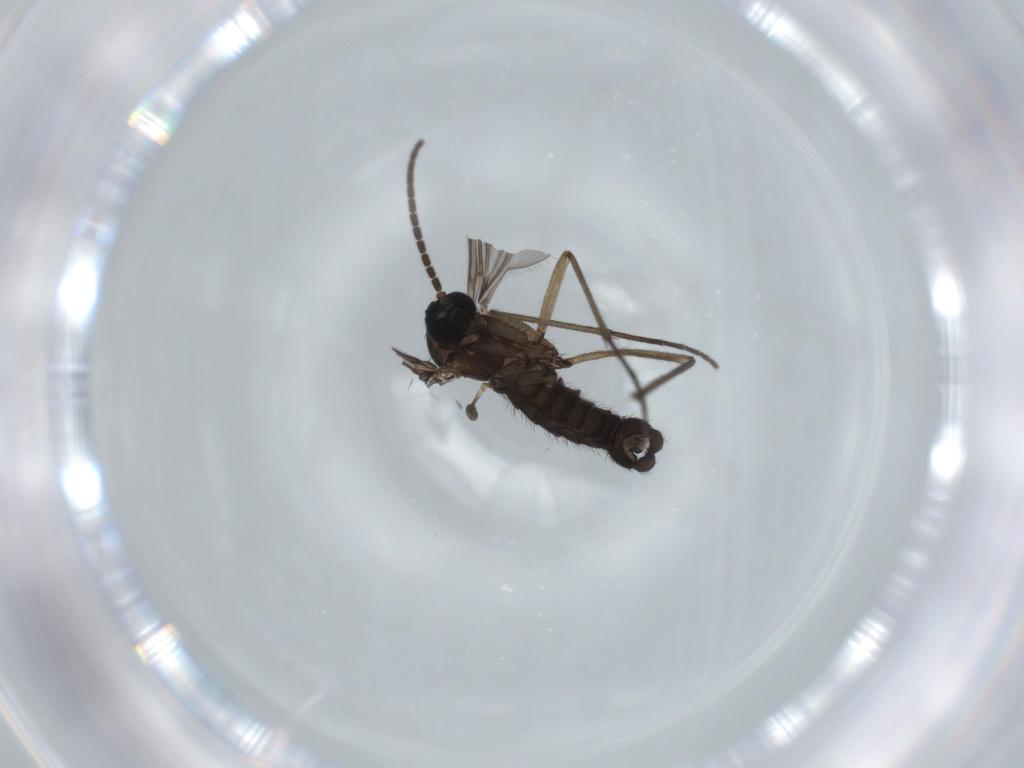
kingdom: Animalia
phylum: Arthropoda
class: Insecta
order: Diptera
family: Sciaridae
